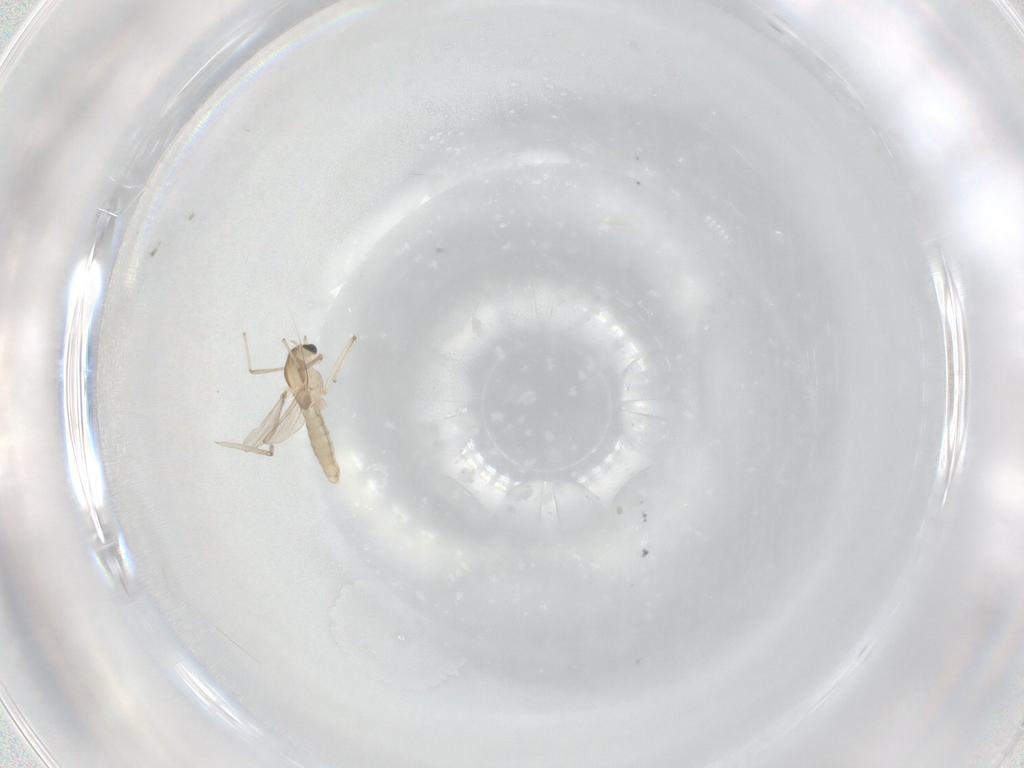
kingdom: Animalia
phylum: Arthropoda
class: Insecta
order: Diptera
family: Chironomidae
